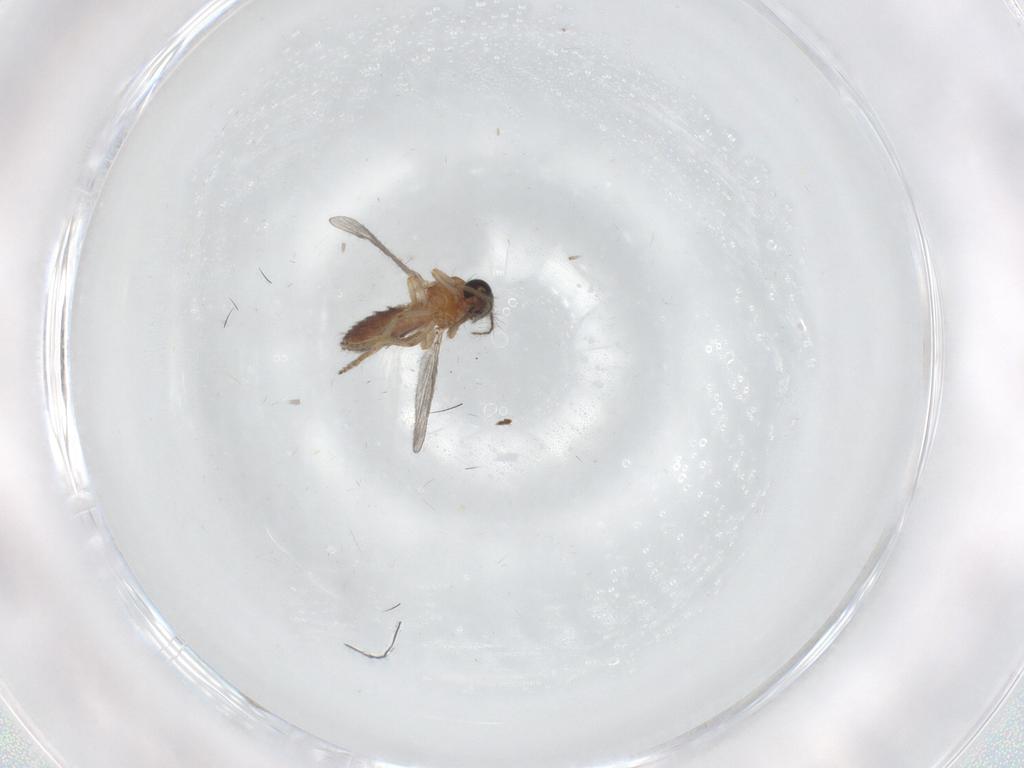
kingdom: Animalia
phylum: Arthropoda
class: Insecta
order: Diptera
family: Ceratopogonidae
